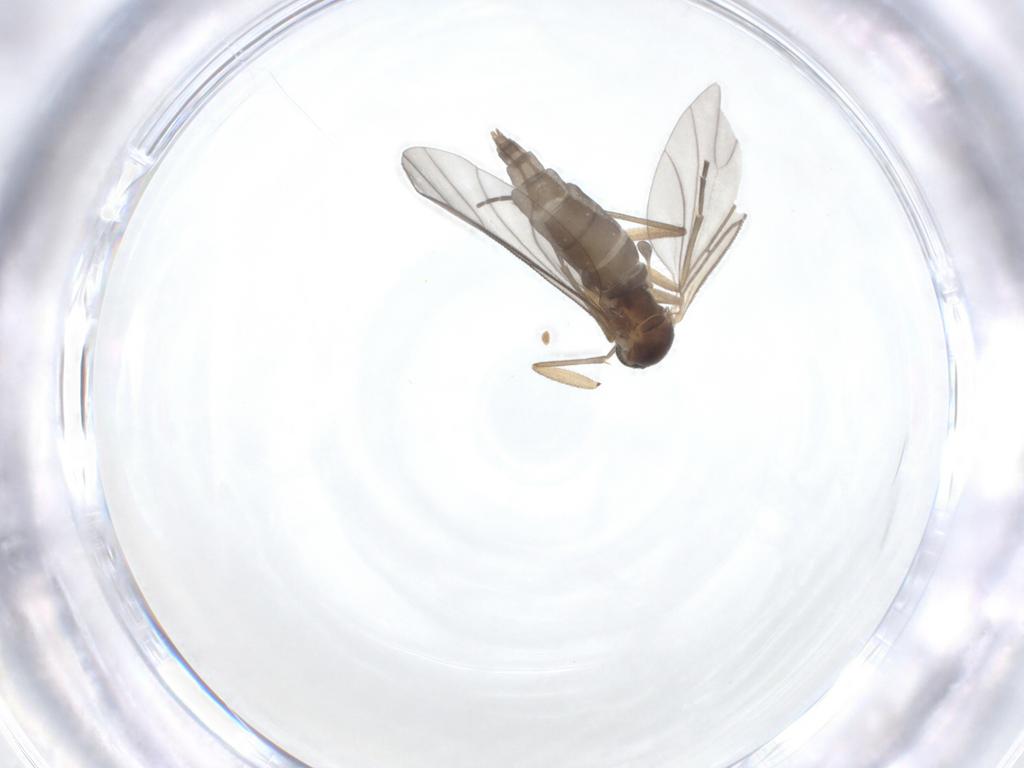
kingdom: Animalia
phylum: Arthropoda
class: Insecta
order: Diptera
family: Sciaridae
